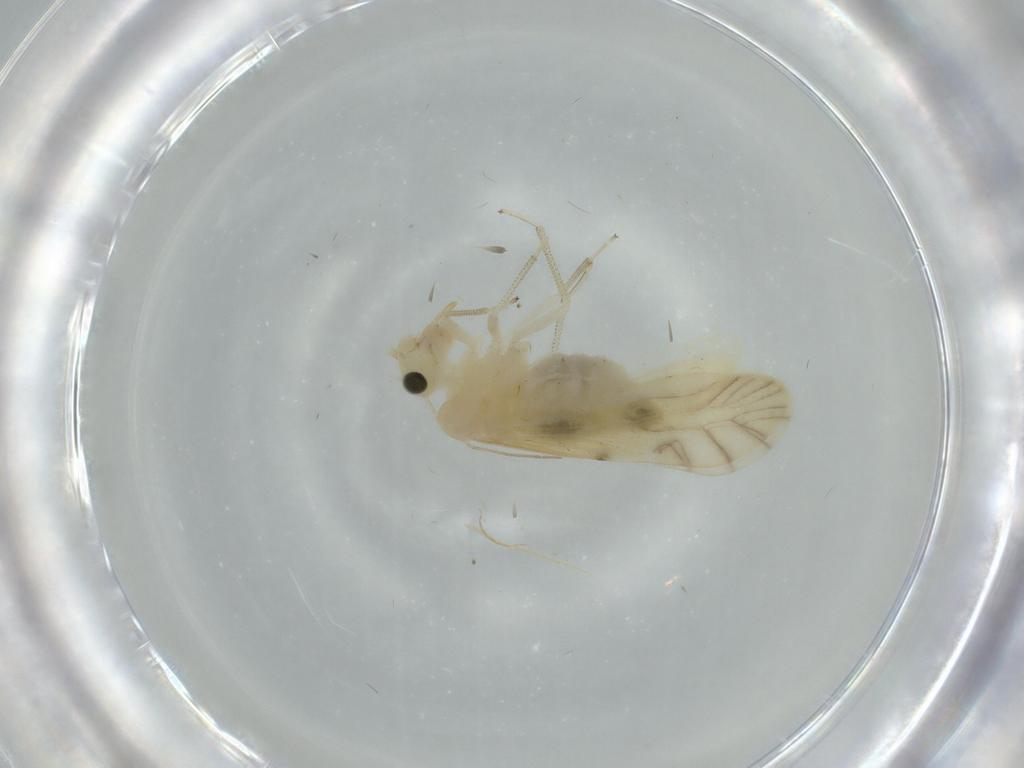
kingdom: Animalia
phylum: Arthropoda
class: Insecta
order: Psocodea
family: Caeciliusidae
